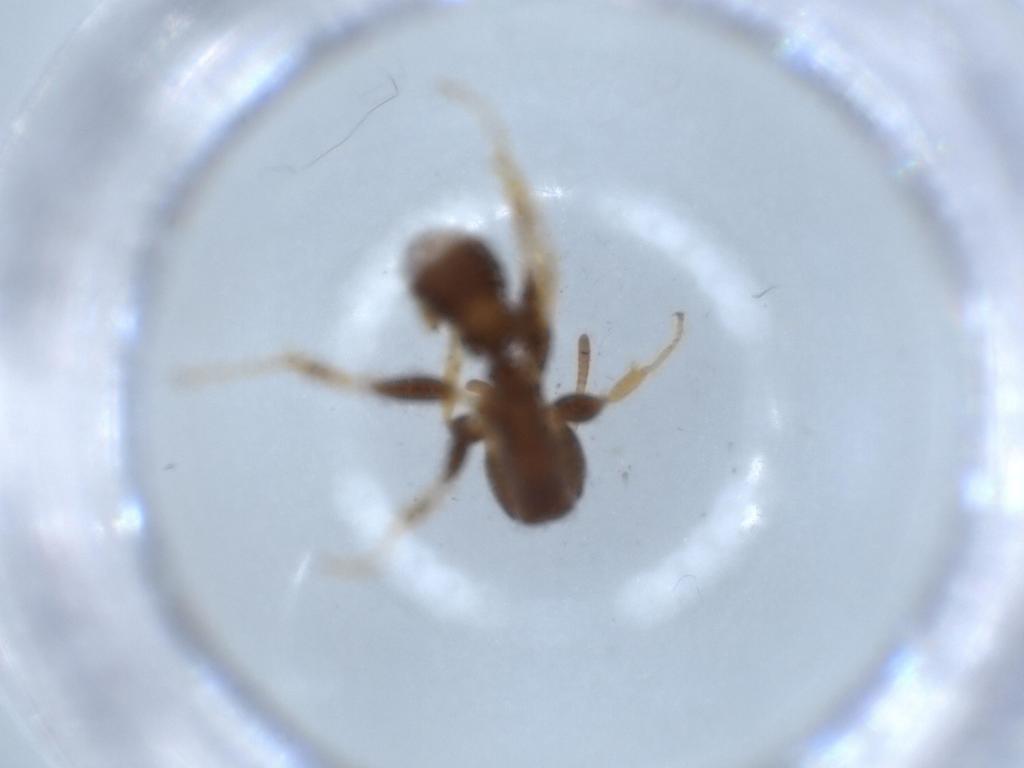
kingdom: Animalia
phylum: Arthropoda
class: Insecta
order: Hymenoptera
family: Formicidae
